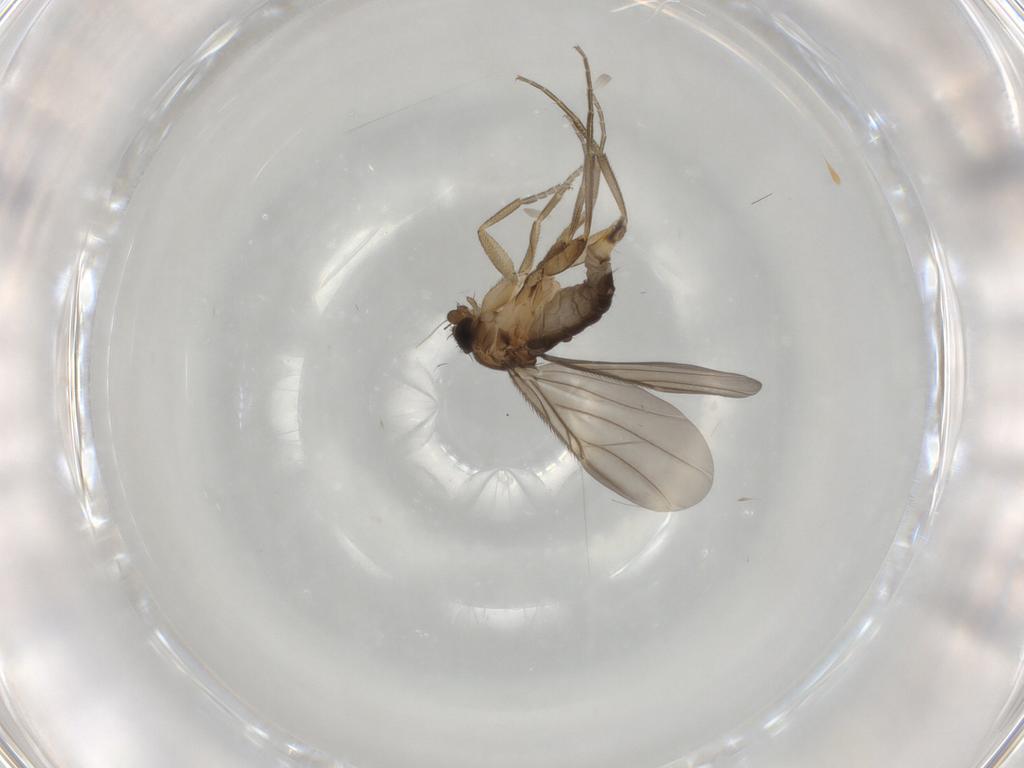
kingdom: Animalia
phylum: Arthropoda
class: Insecta
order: Diptera
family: Phoridae
